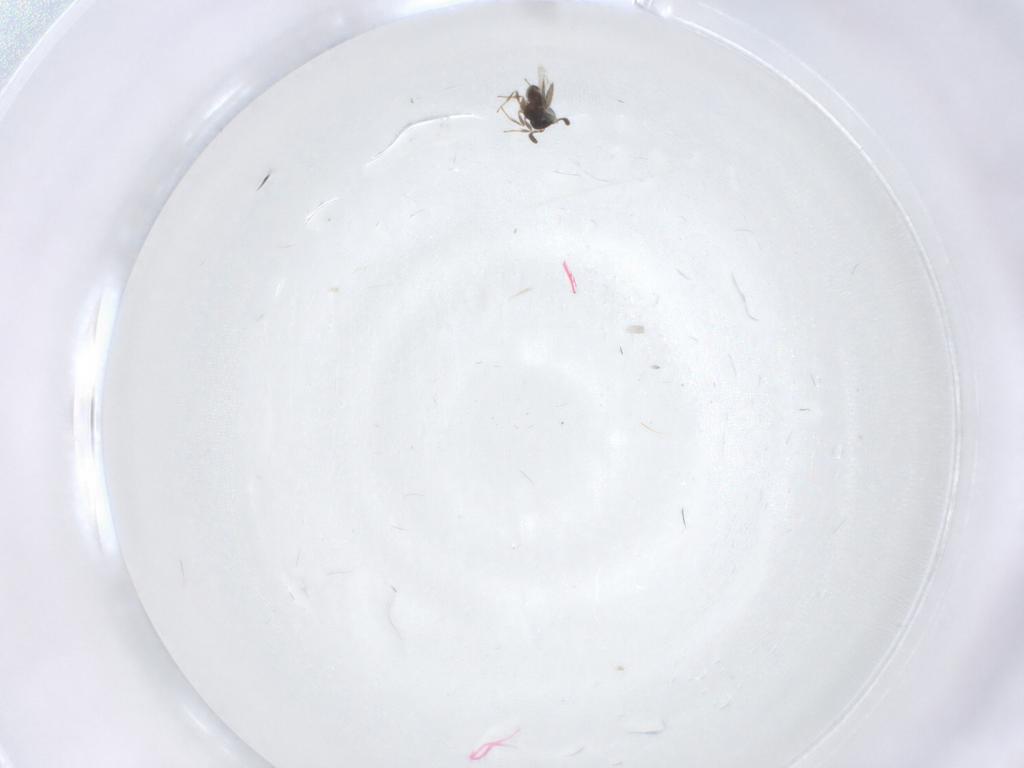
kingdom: Animalia
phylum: Arthropoda
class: Insecta
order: Hymenoptera
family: Scelionidae
